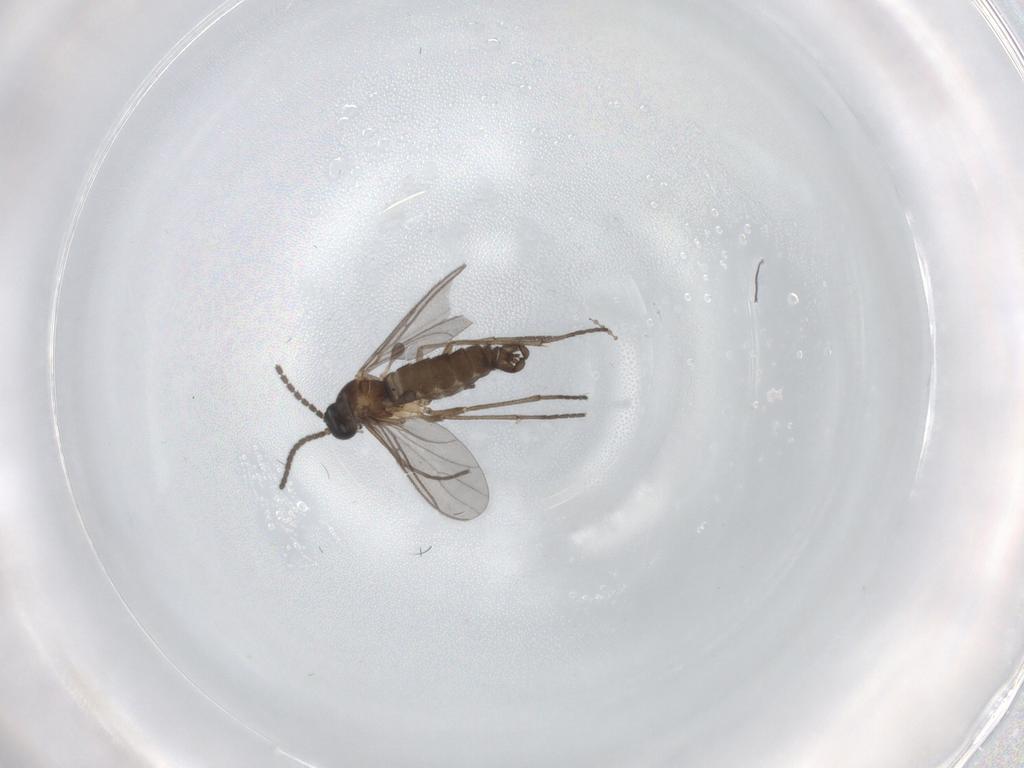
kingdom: Animalia
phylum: Arthropoda
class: Insecta
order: Diptera
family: Sciaridae
